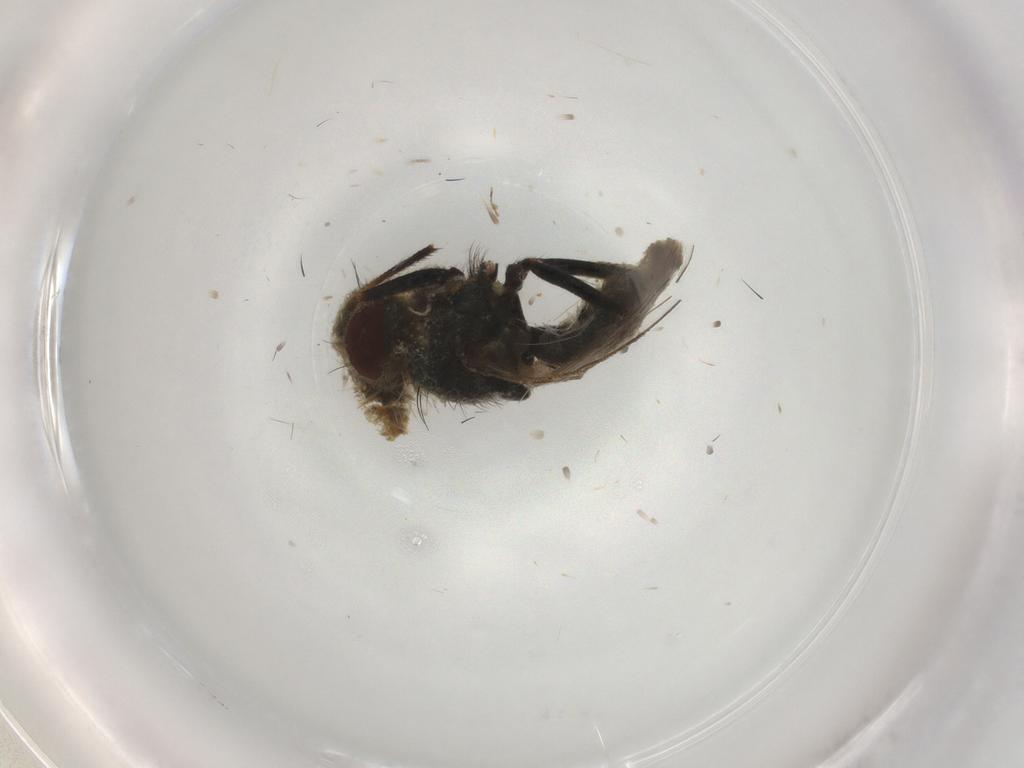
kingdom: Animalia
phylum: Arthropoda
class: Insecta
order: Diptera
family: Muscidae
